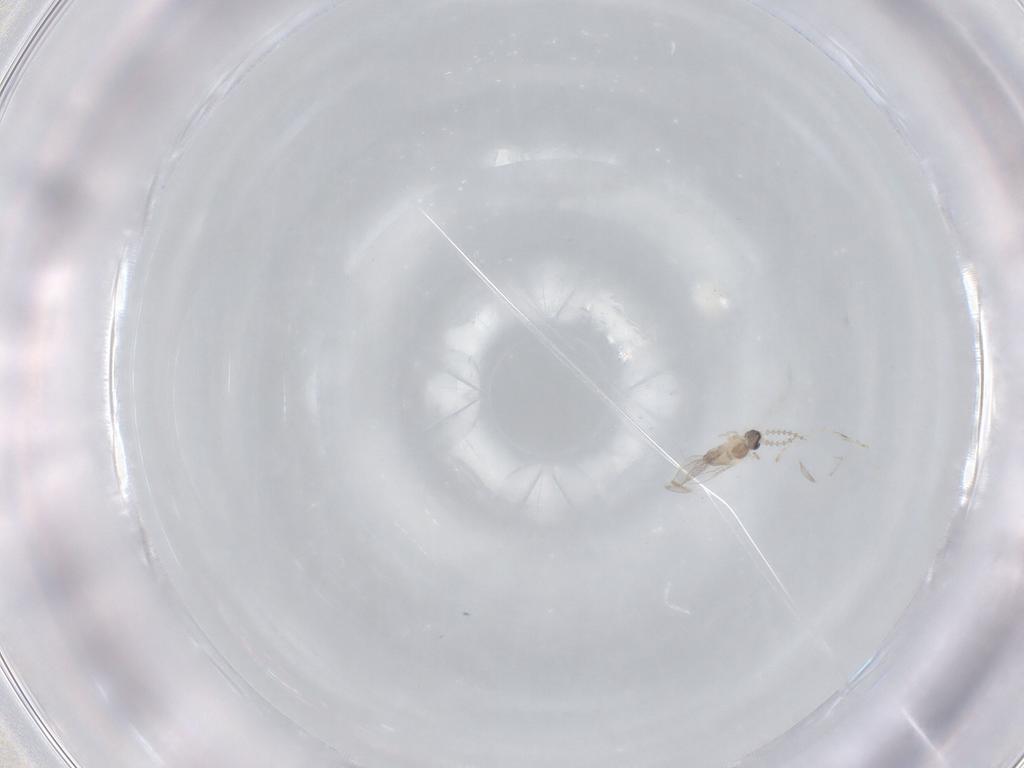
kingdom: Animalia
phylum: Arthropoda
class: Insecta
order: Diptera
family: Cecidomyiidae
